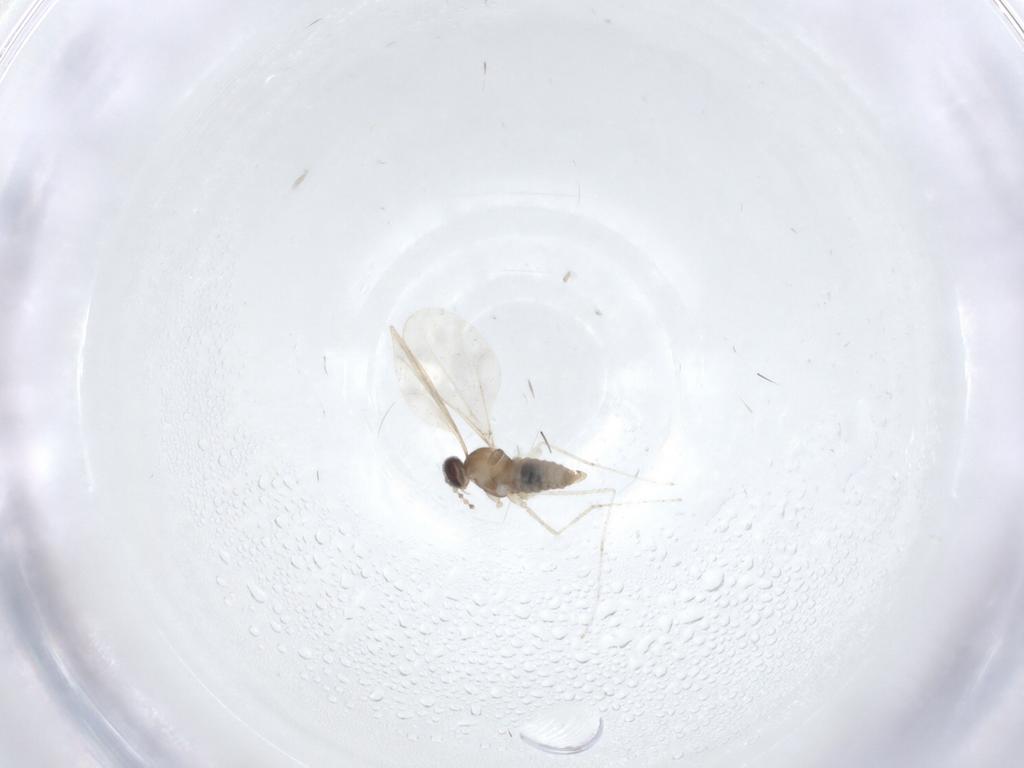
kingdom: Animalia
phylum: Arthropoda
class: Insecta
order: Diptera
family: Cecidomyiidae
